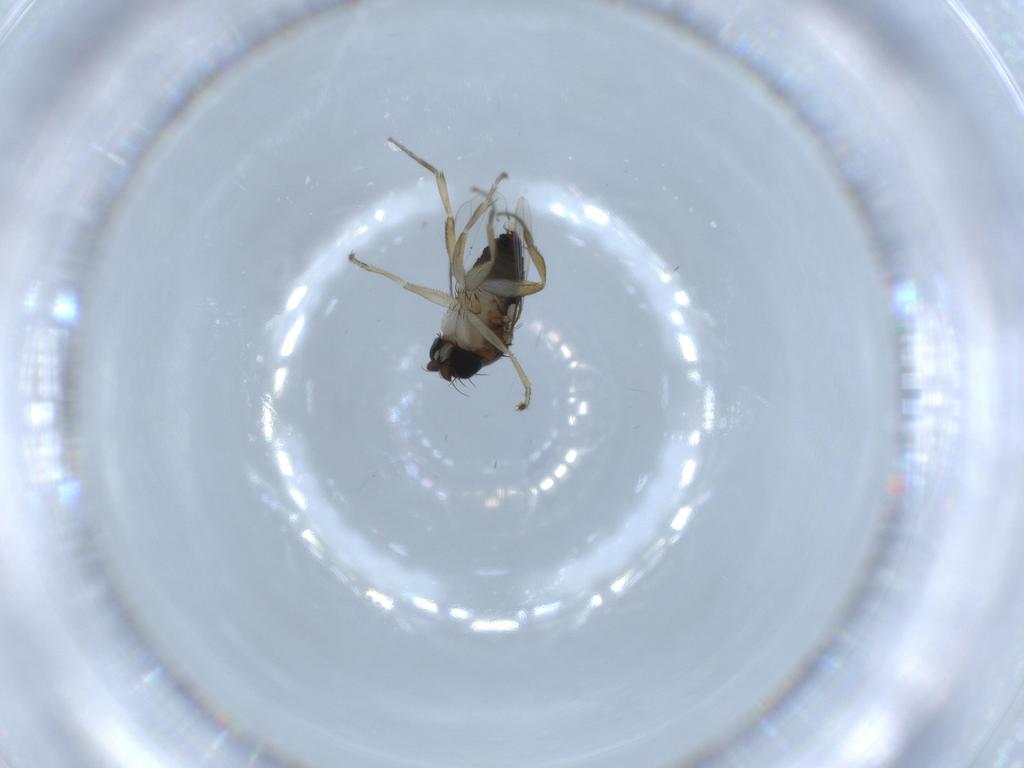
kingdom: Animalia
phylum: Arthropoda
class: Insecta
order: Diptera
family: Phoridae
